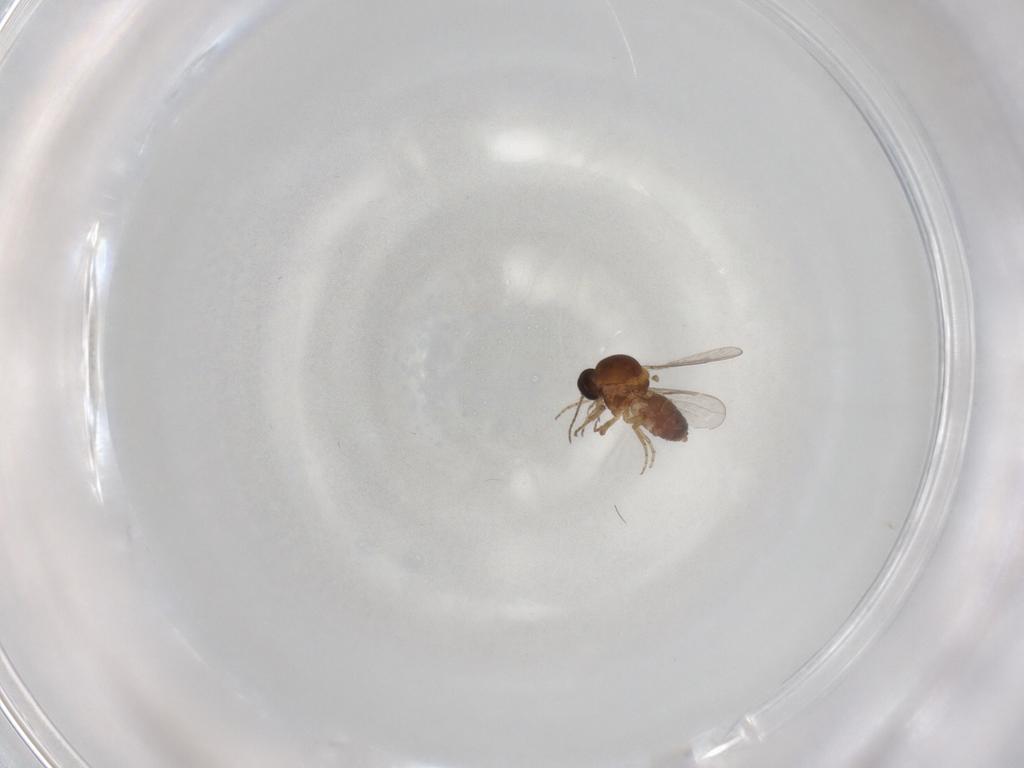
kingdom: Animalia
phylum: Arthropoda
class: Insecta
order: Diptera
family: Ceratopogonidae
